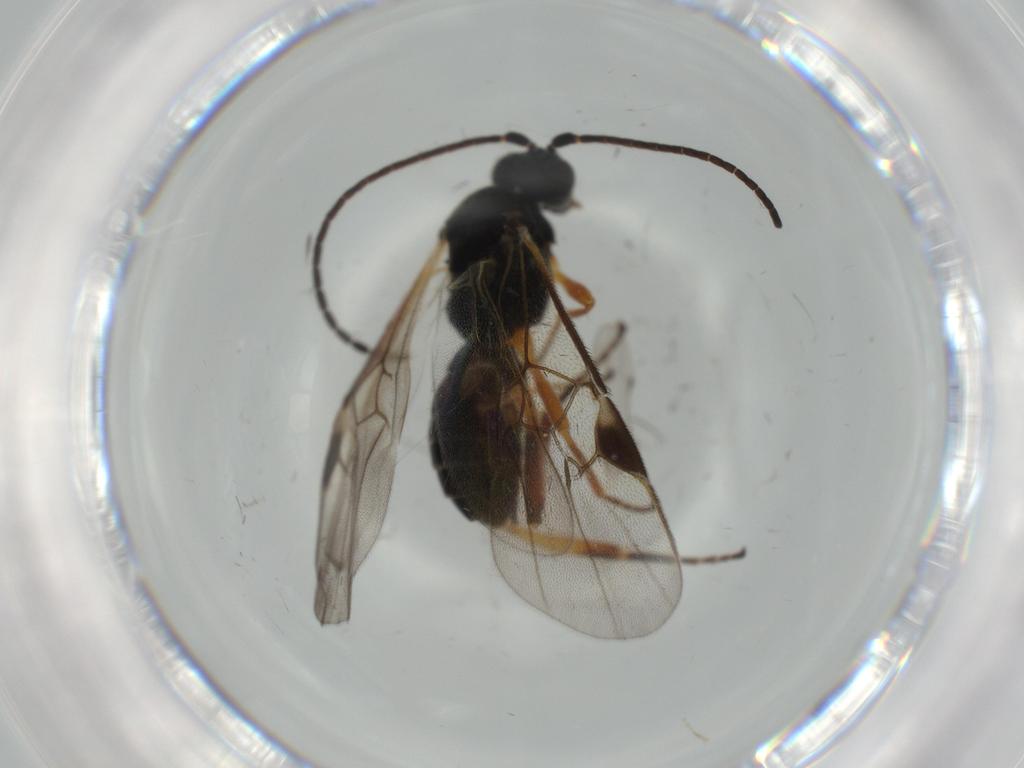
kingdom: Animalia
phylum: Arthropoda
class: Insecta
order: Hymenoptera
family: Braconidae
